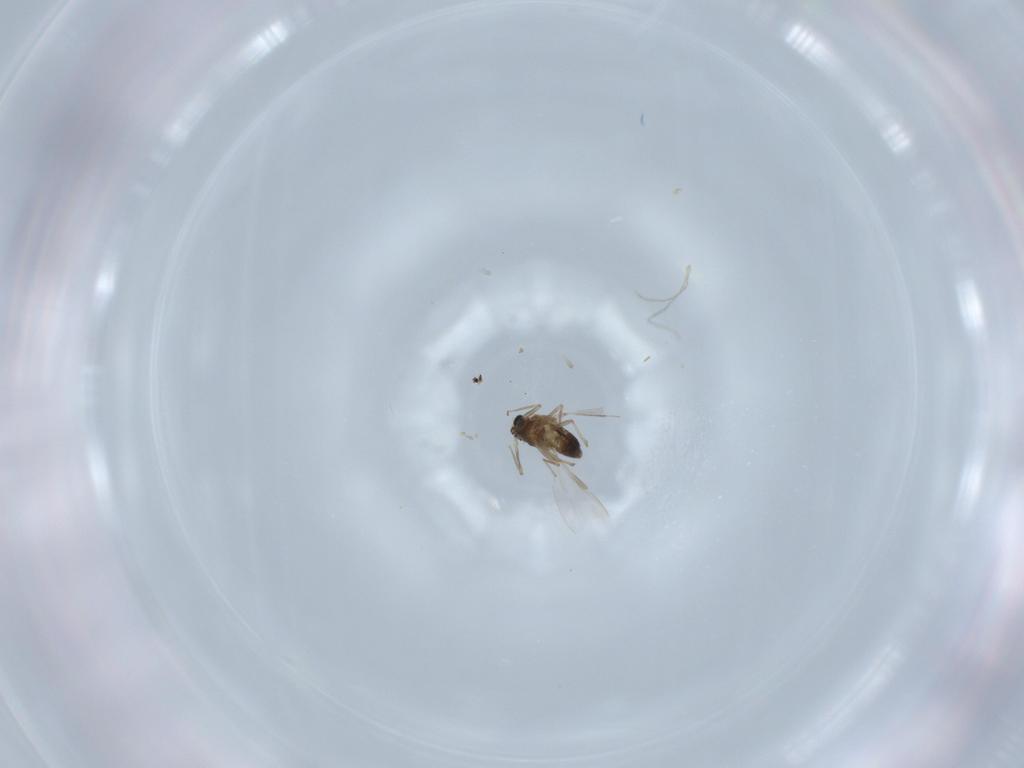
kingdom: Animalia
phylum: Arthropoda
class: Insecta
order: Diptera
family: Chironomidae
